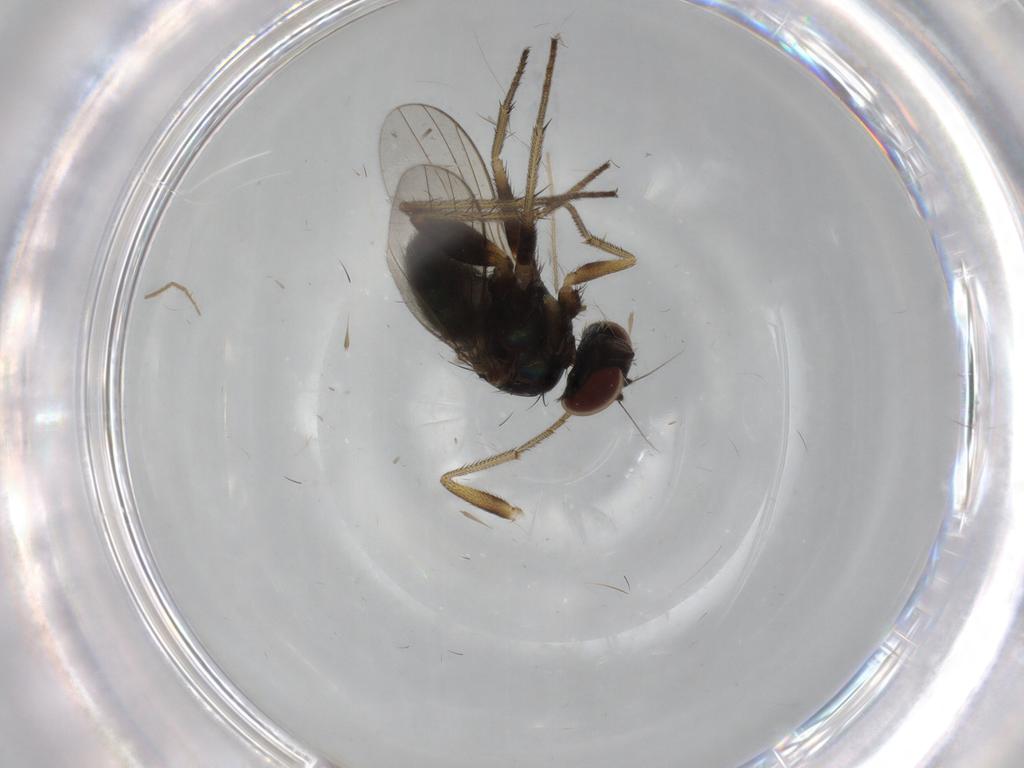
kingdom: Animalia
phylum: Arthropoda
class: Insecta
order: Diptera
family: Dolichopodidae
